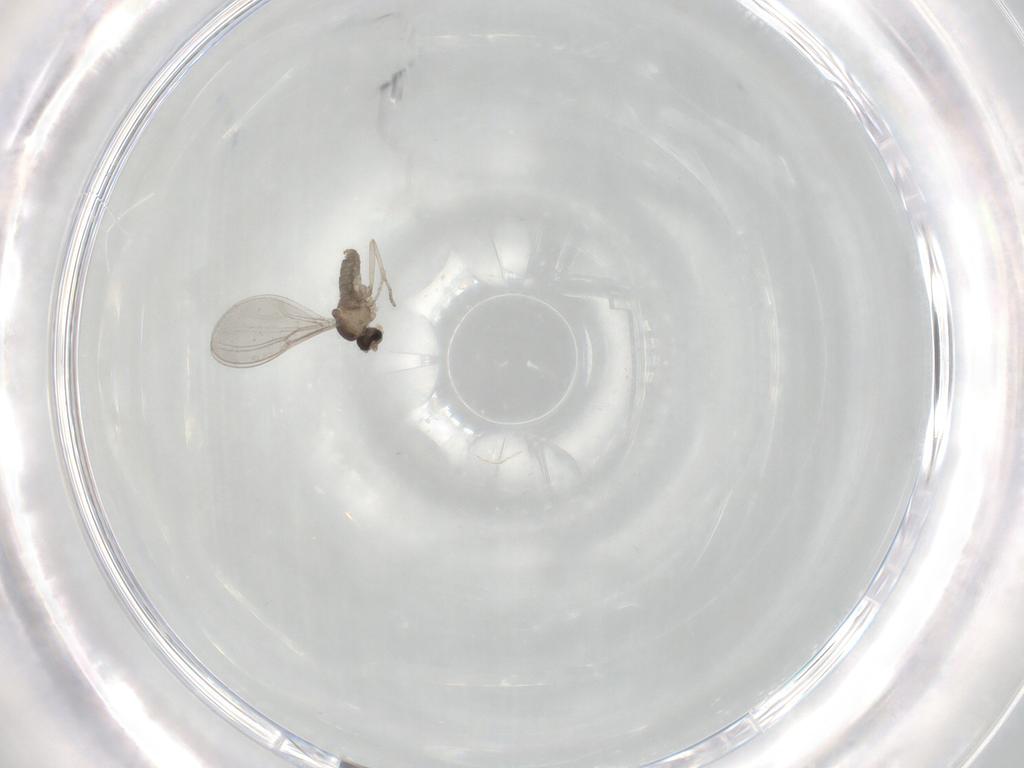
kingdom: Animalia
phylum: Arthropoda
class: Insecta
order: Diptera
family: Cecidomyiidae
